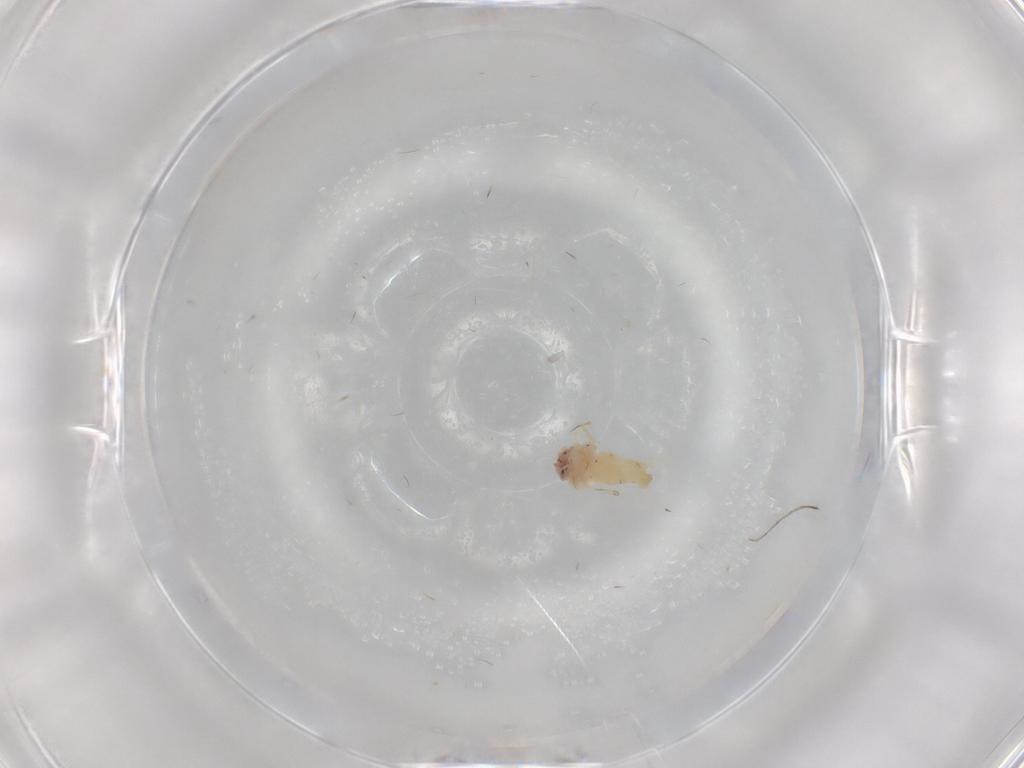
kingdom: Animalia
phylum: Arthropoda
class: Insecta
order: Hemiptera
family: Aleyrodidae
